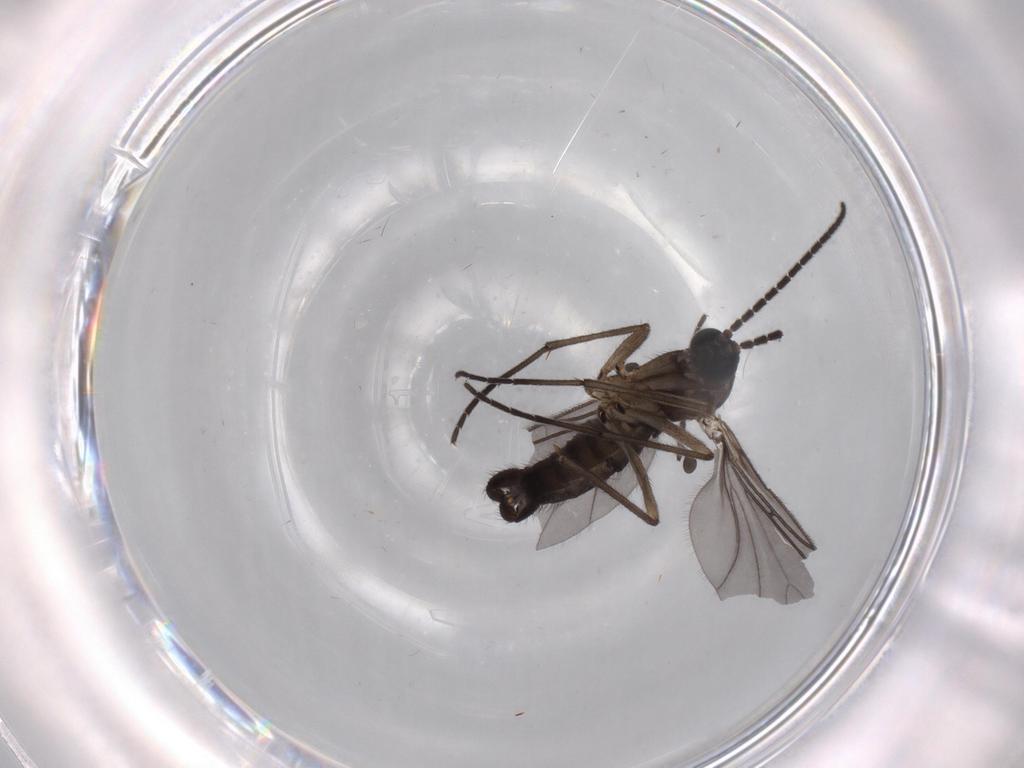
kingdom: Animalia
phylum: Arthropoda
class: Insecta
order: Diptera
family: Sciaridae
